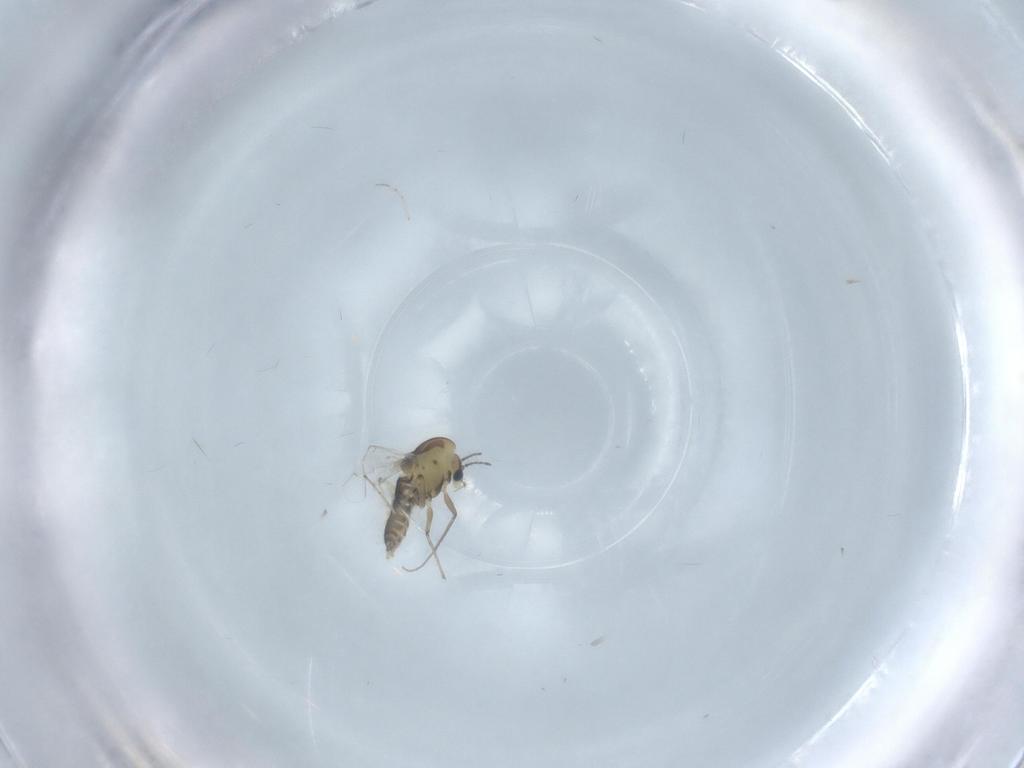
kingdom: Animalia
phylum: Arthropoda
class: Insecta
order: Diptera
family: Chironomidae
